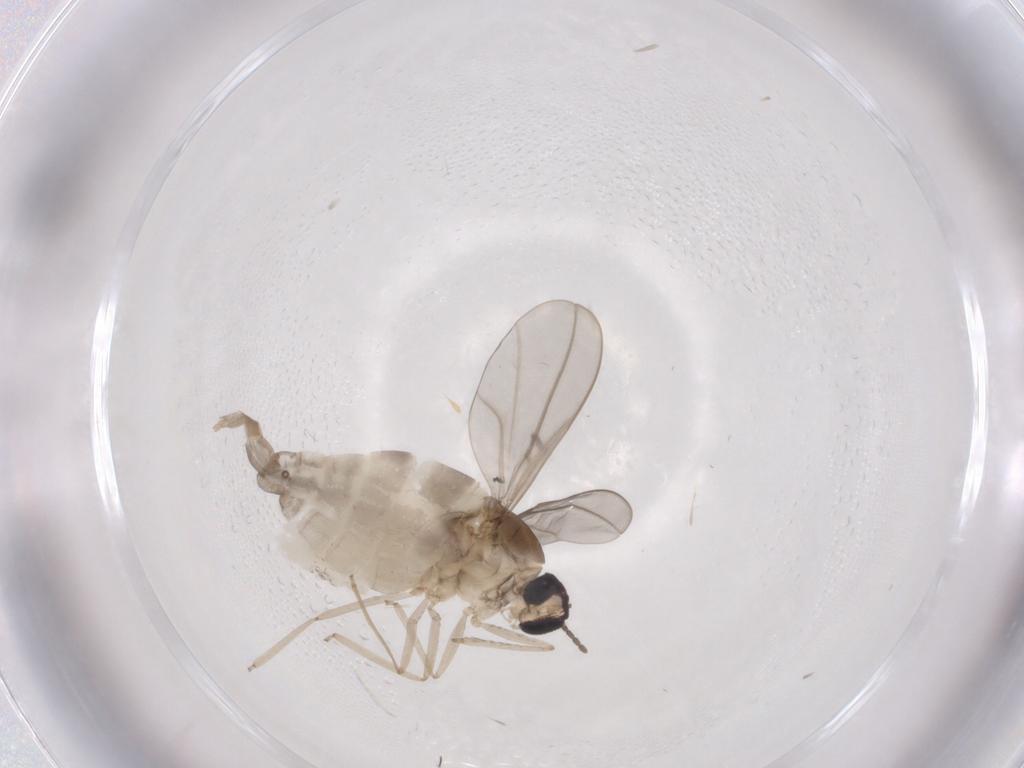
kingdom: Animalia
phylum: Arthropoda
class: Insecta
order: Diptera
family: Cecidomyiidae
